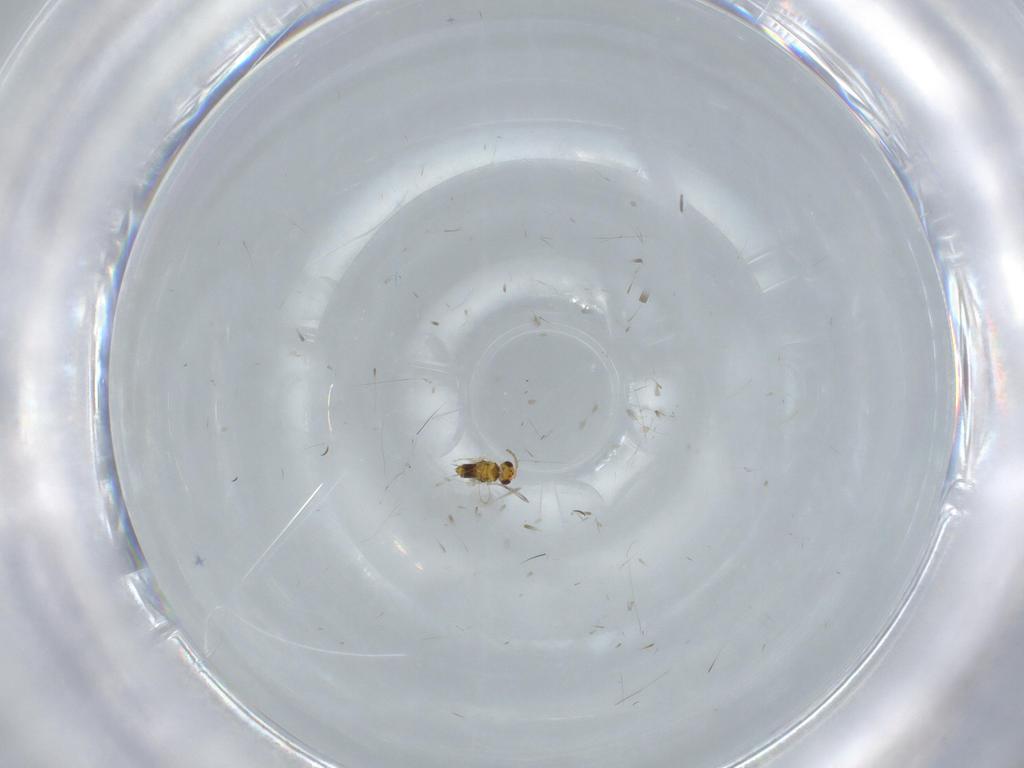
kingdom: Animalia
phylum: Arthropoda
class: Insecta
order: Hymenoptera
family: Aphelinidae
